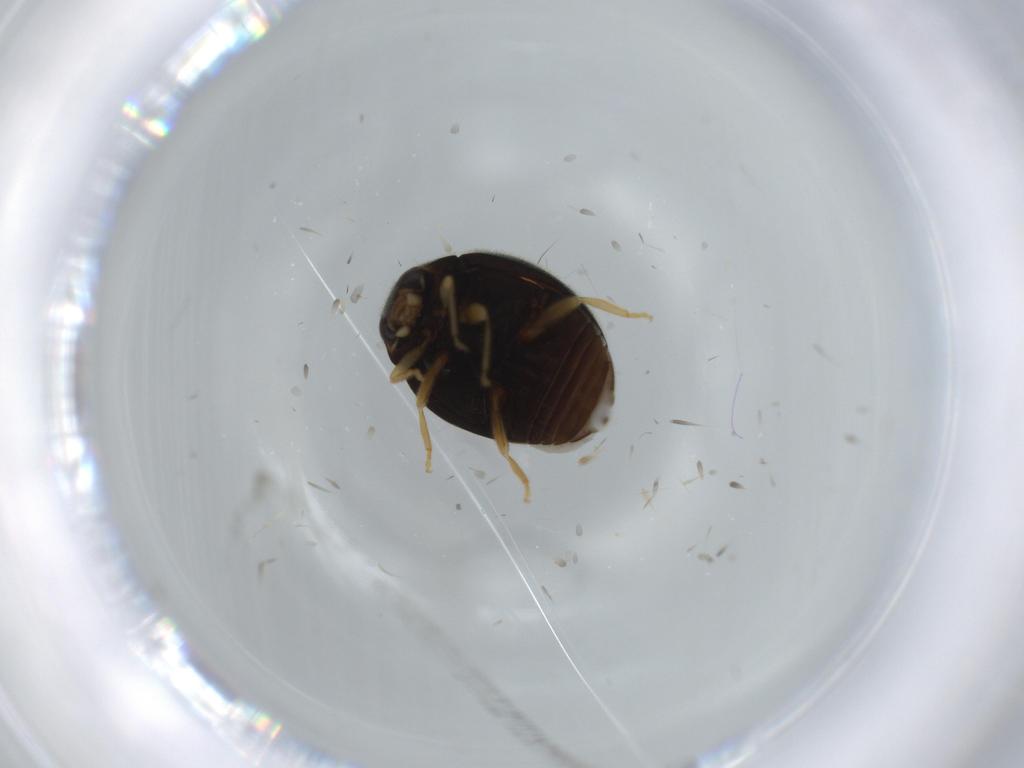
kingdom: Animalia
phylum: Arthropoda
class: Insecta
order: Coleoptera
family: Coccinellidae
